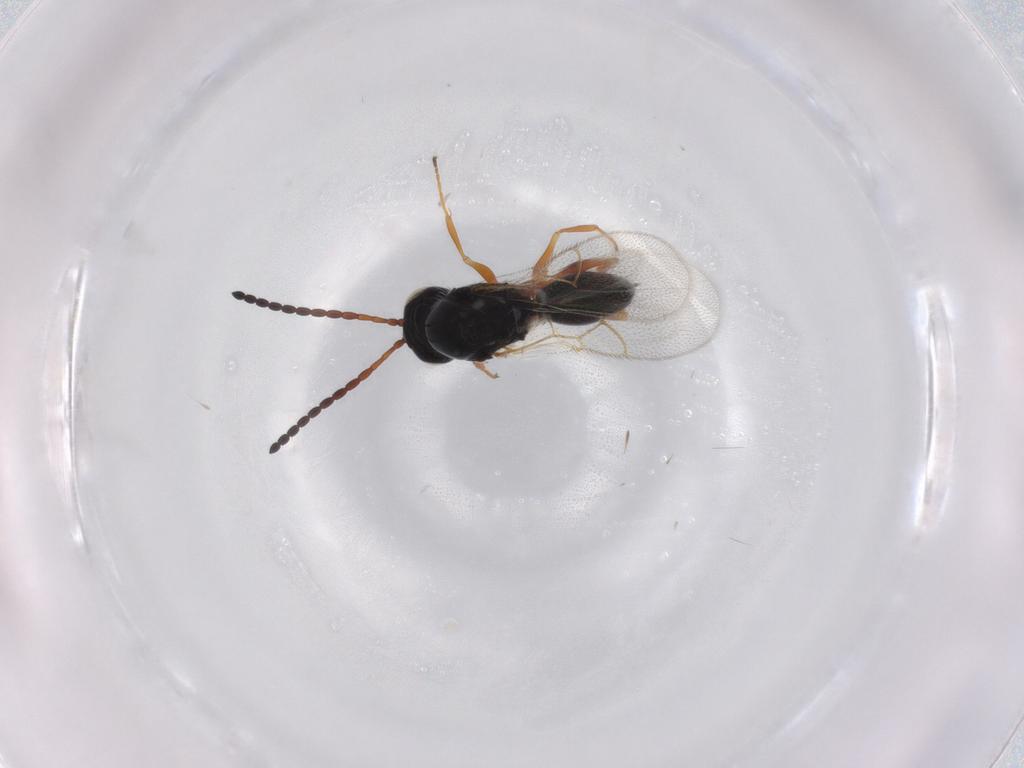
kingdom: Animalia
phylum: Arthropoda
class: Insecta
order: Hymenoptera
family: Figitidae
